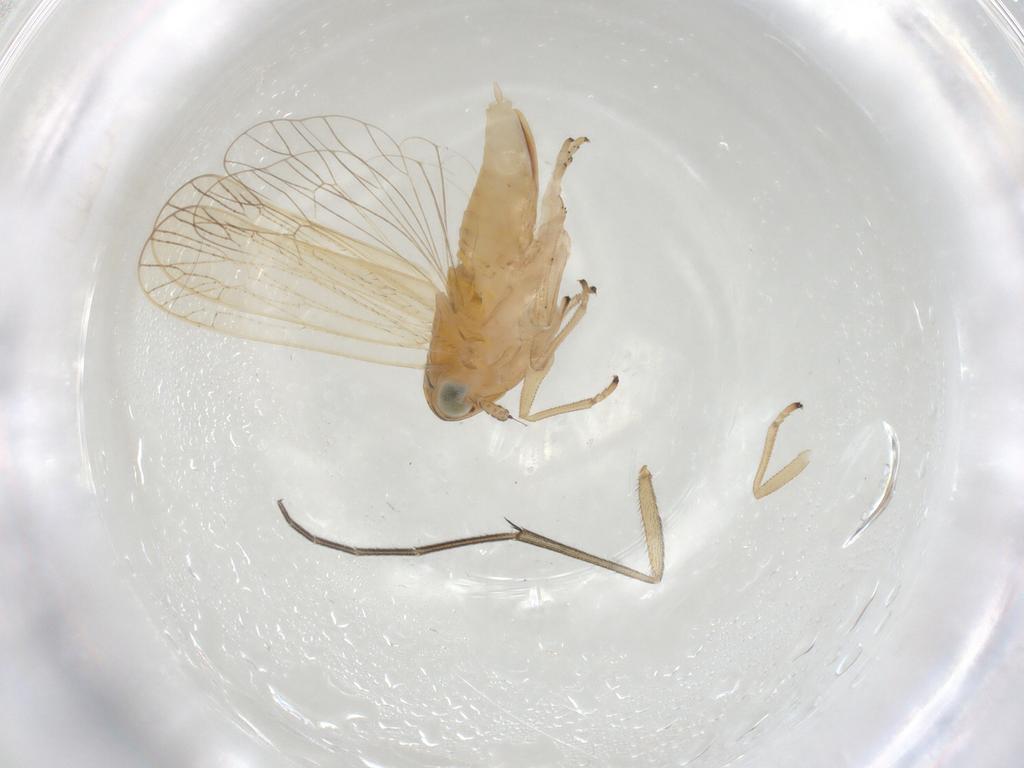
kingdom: Animalia
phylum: Arthropoda
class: Insecta
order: Hemiptera
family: Delphacidae
